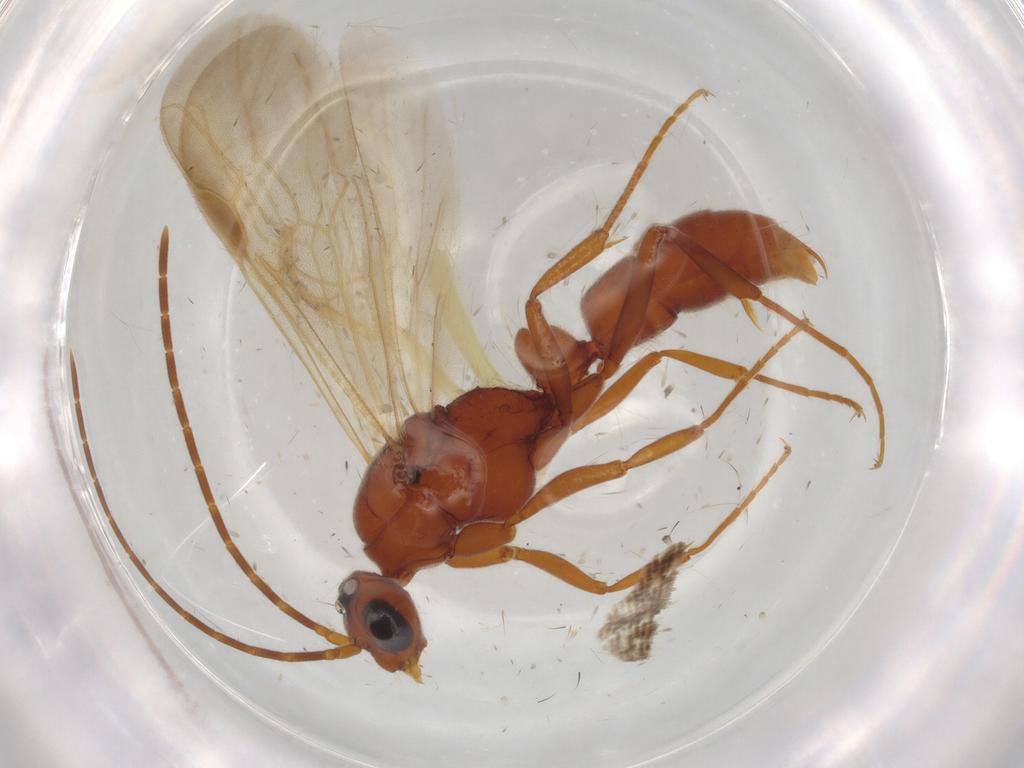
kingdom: Animalia
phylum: Arthropoda
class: Insecta
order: Hymenoptera
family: Formicidae
